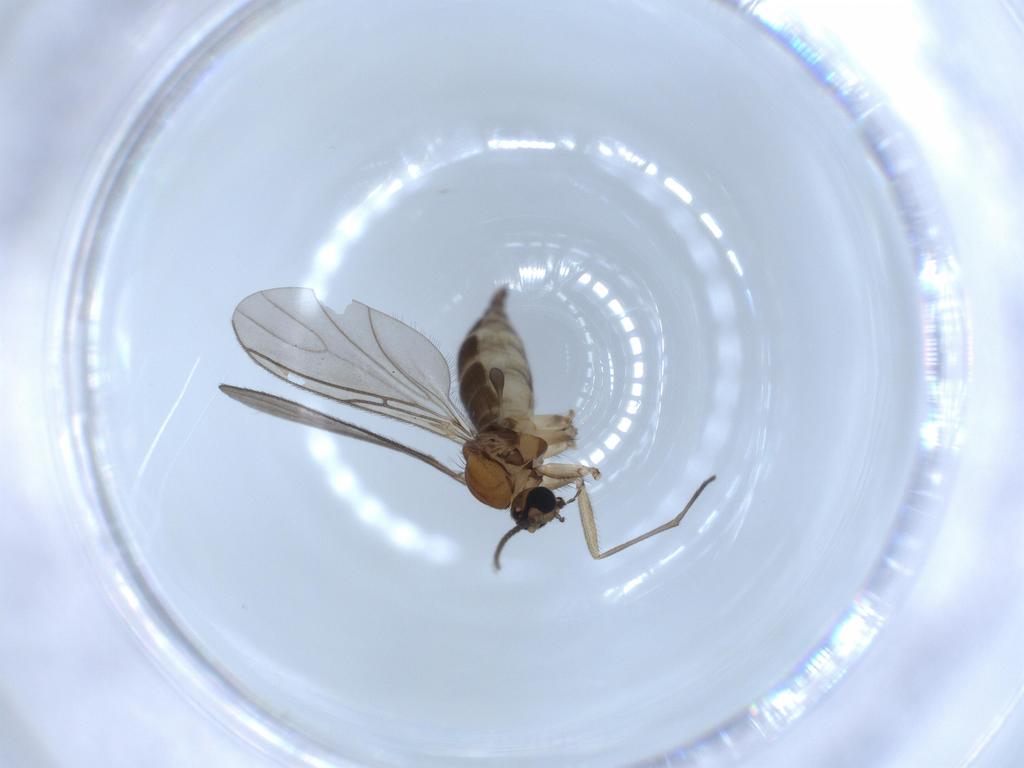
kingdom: Animalia
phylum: Arthropoda
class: Insecta
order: Diptera
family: Sciaridae
